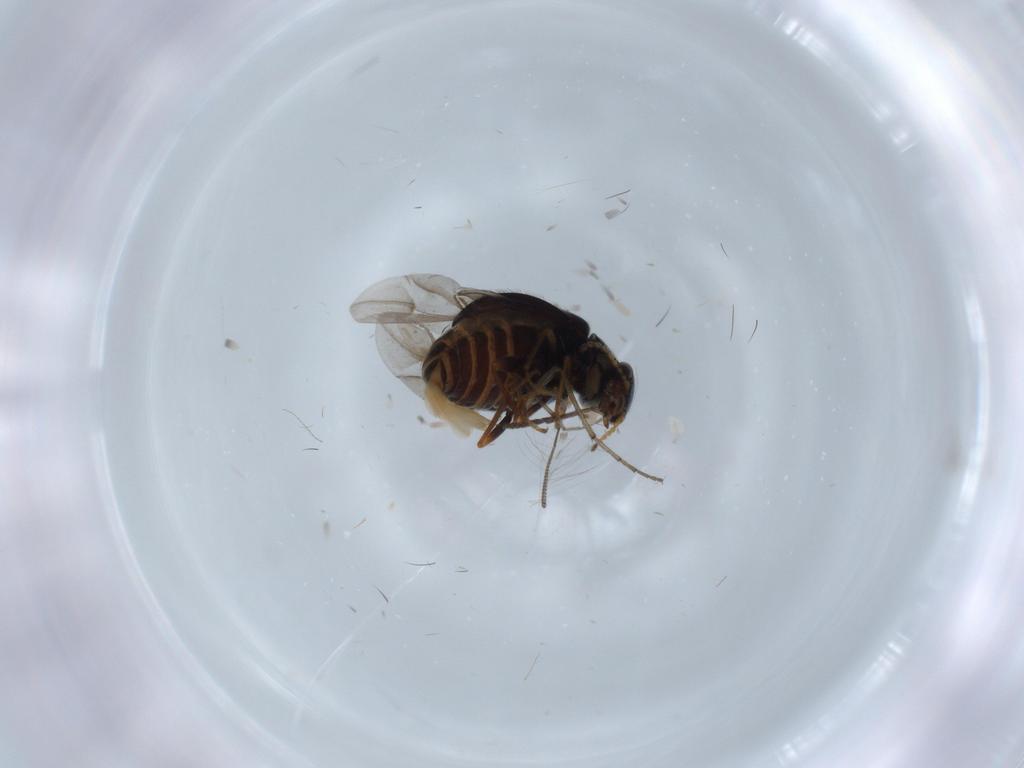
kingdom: Animalia
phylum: Arthropoda
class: Insecta
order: Coleoptera
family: Melyridae
